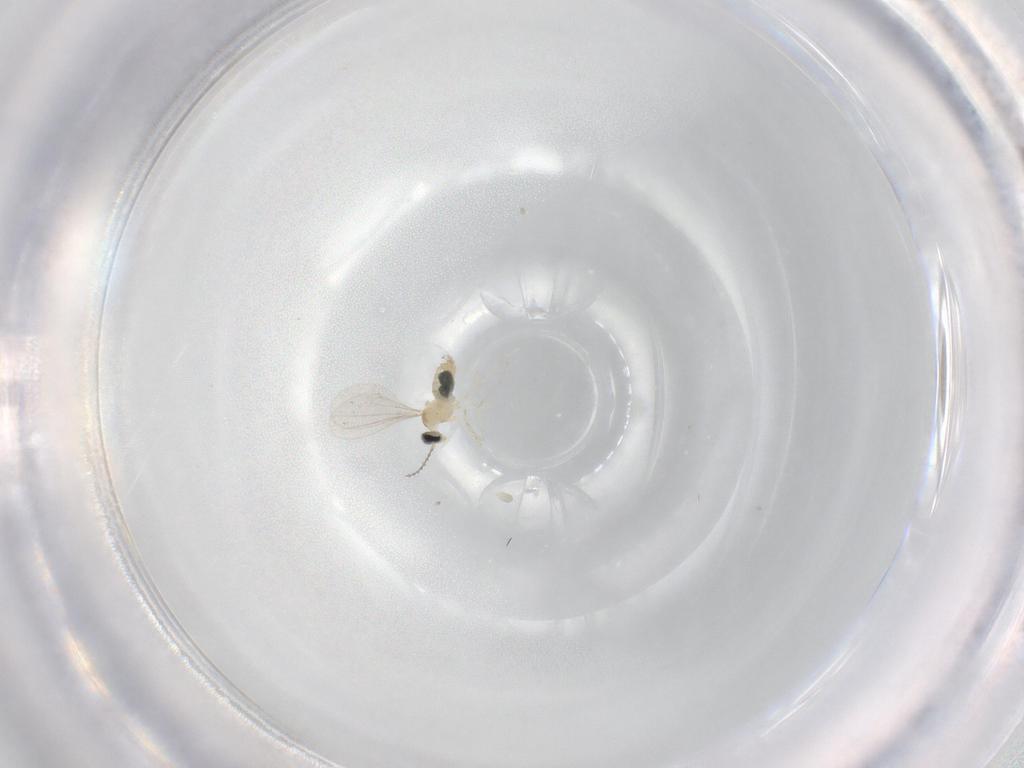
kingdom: Animalia
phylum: Arthropoda
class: Insecta
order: Diptera
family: Cecidomyiidae
